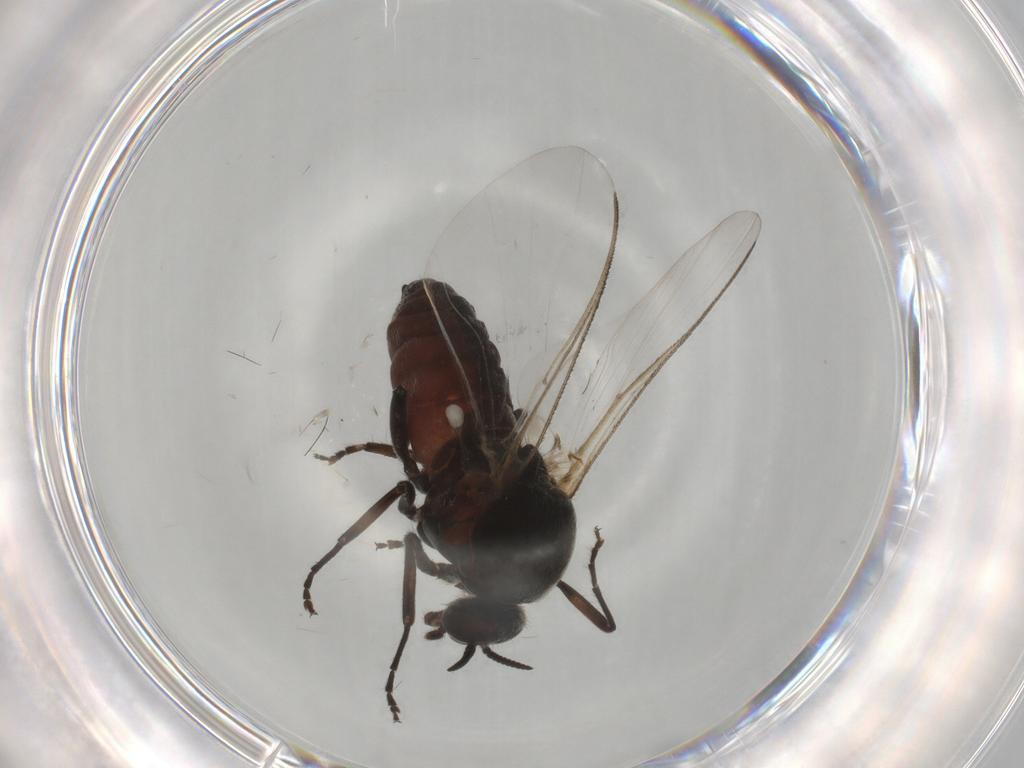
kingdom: Animalia
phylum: Arthropoda
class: Insecta
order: Diptera
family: Bombyliidae
